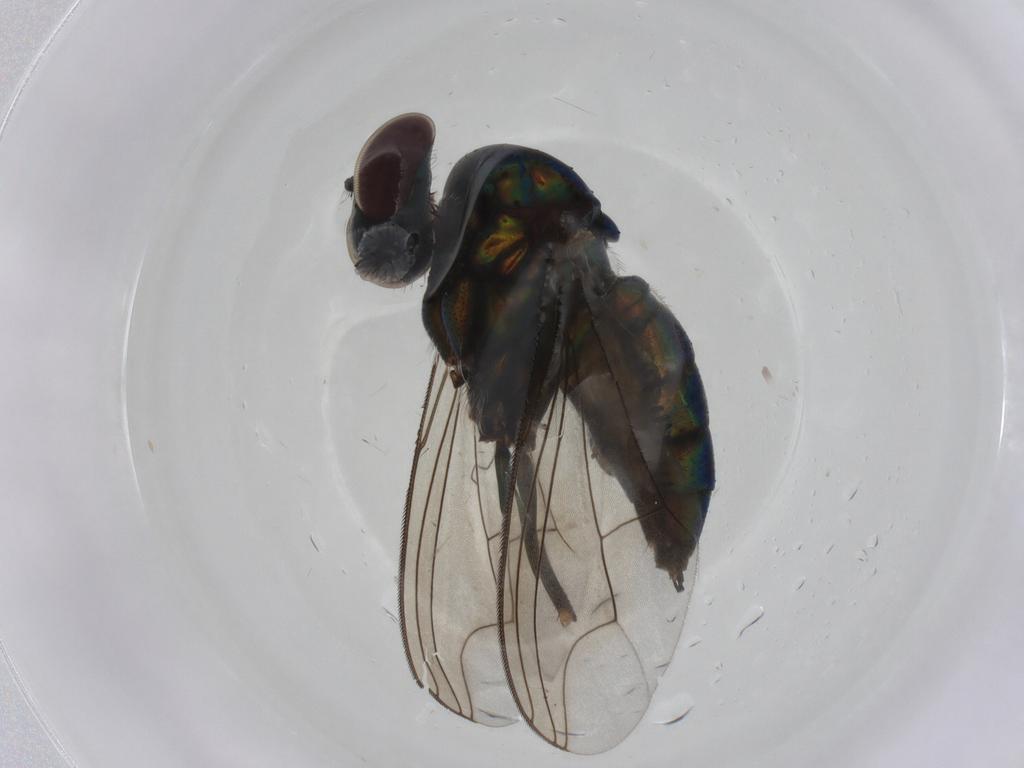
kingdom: Animalia
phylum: Arthropoda
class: Insecta
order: Diptera
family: Dolichopodidae
